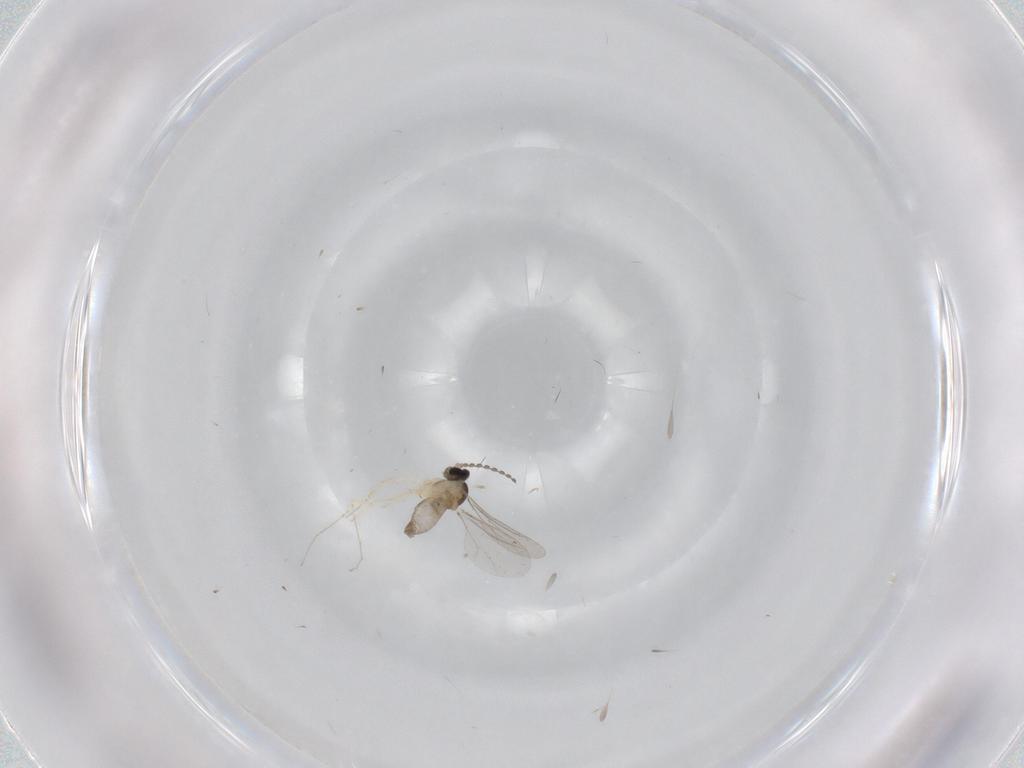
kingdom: Animalia
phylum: Arthropoda
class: Insecta
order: Diptera
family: Cecidomyiidae
